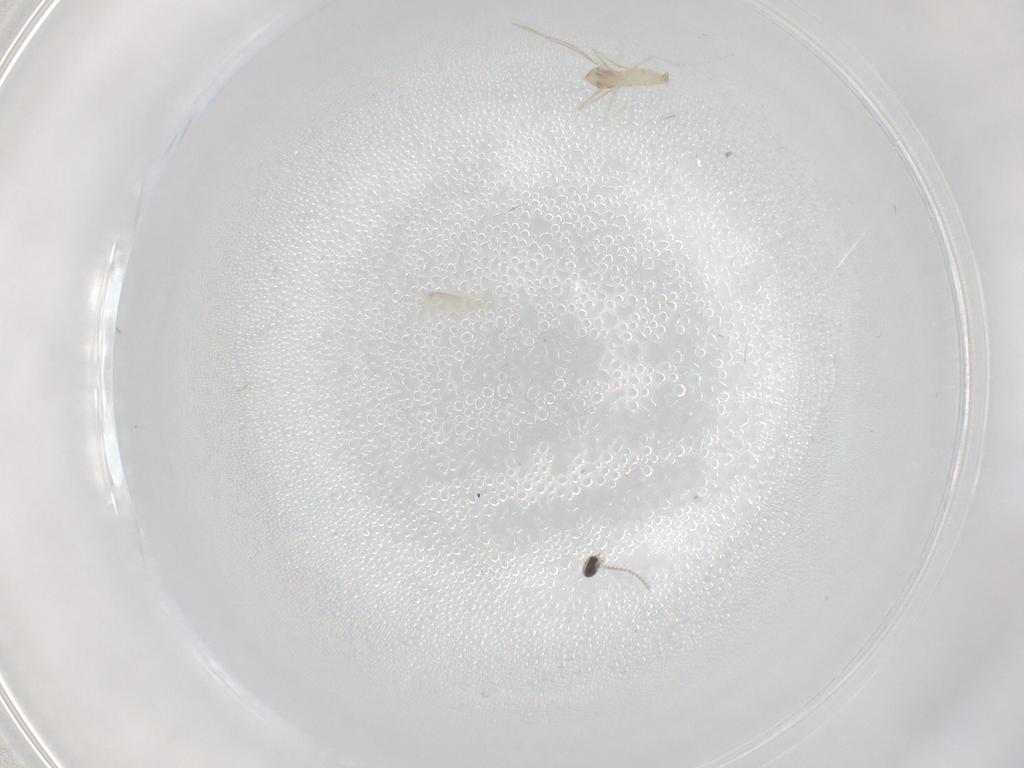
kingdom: Animalia
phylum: Arthropoda
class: Insecta
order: Diptera
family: Cecidomyiidae
